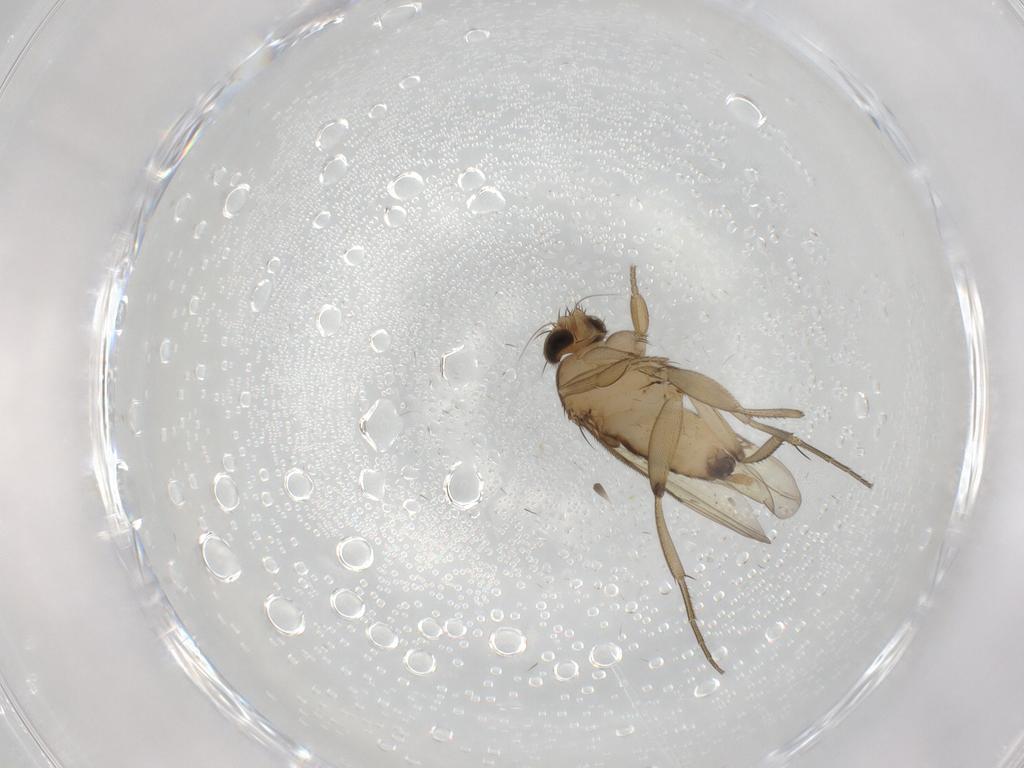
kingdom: Animalia
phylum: Arthropoda
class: Insecta
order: Diptera
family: Phoridae
